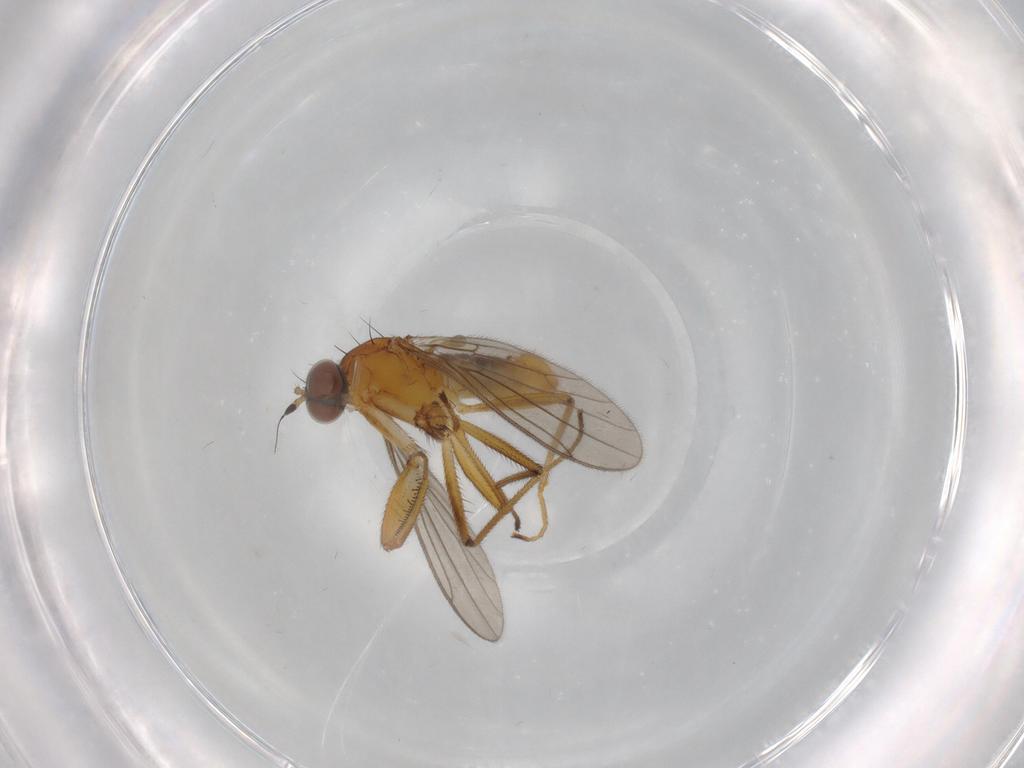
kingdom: Animalia
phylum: Arthropoda
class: Insecta
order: Diptera
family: Empididae
